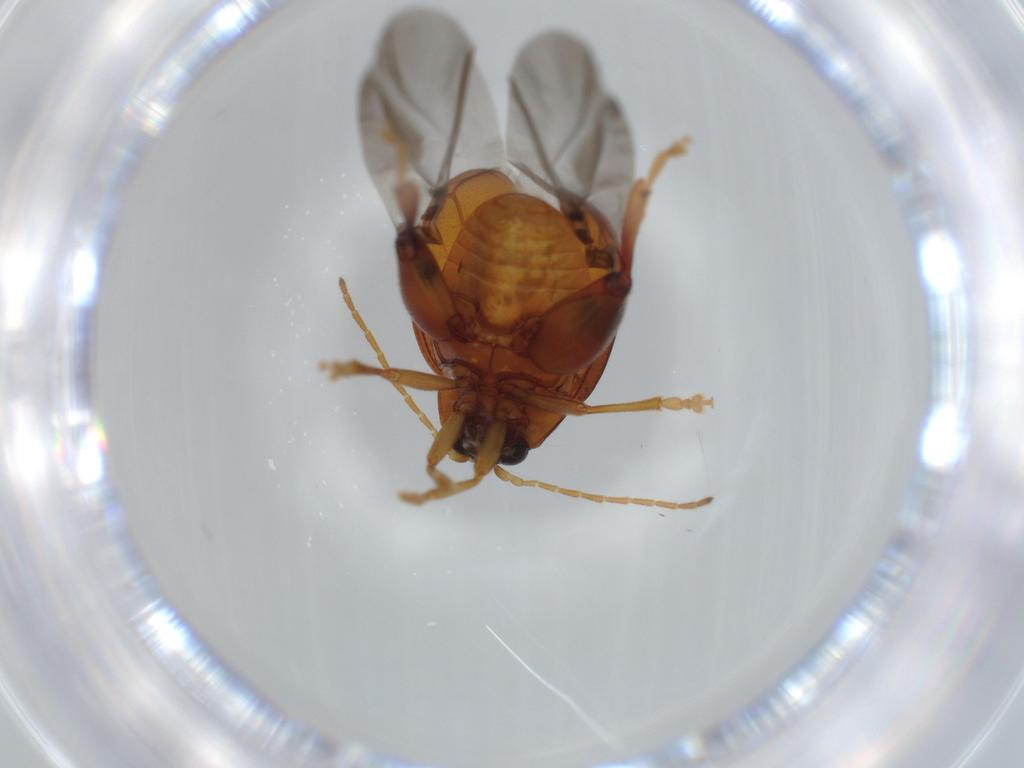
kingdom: Animalia
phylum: Arthropoda
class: Insecta
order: Coleoptera
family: Chrysomelidae
